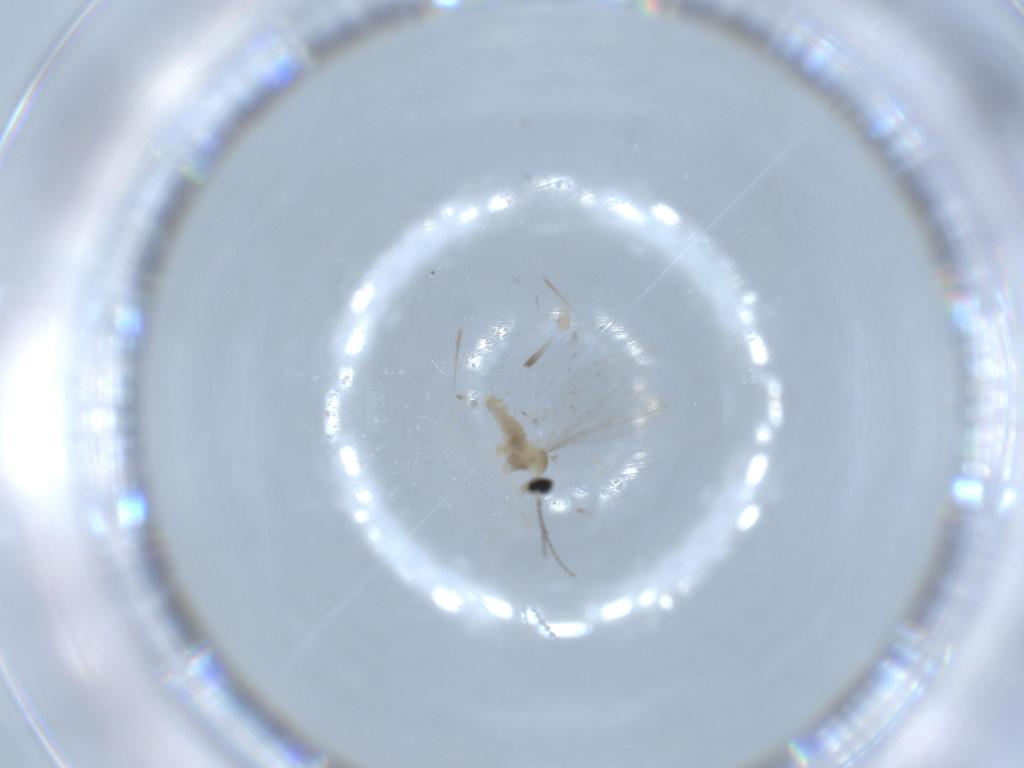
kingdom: Animalia
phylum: Arthropoda
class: Insecta
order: Diptera
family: Cecidomyiidae
